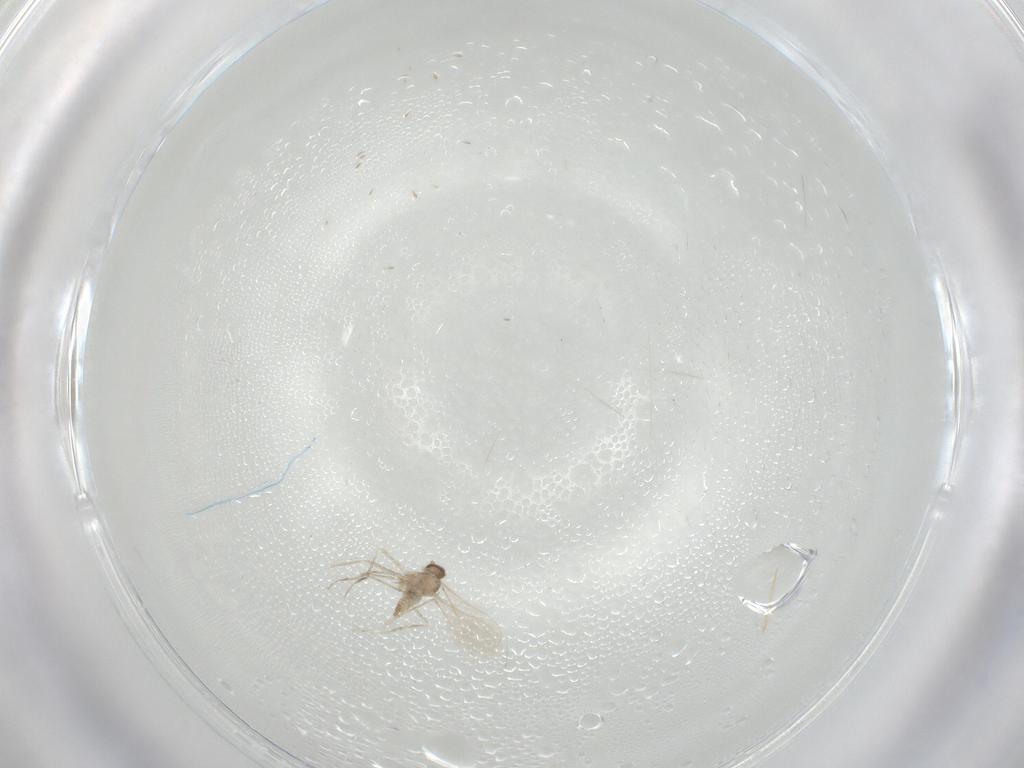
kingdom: Animalia
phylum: Arthropoda
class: Insecta
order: Diptera
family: Cecidomyiidae
